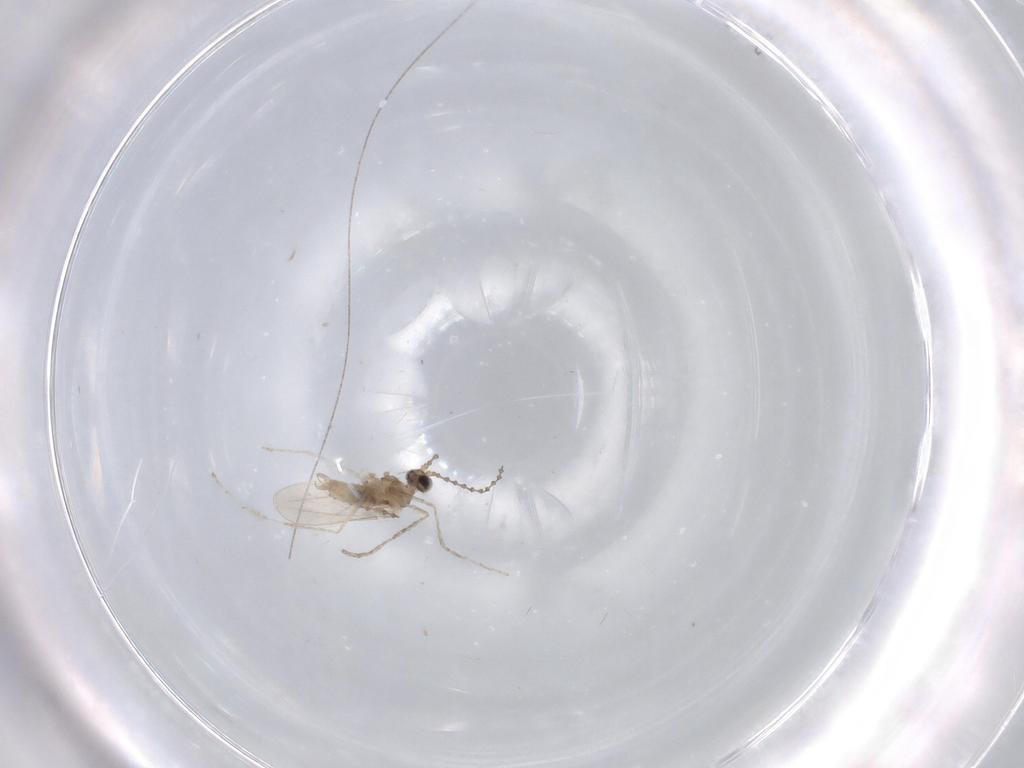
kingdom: Animalia
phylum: Arthropoda
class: Insecta
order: Diptera
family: Cecidomyiidae
